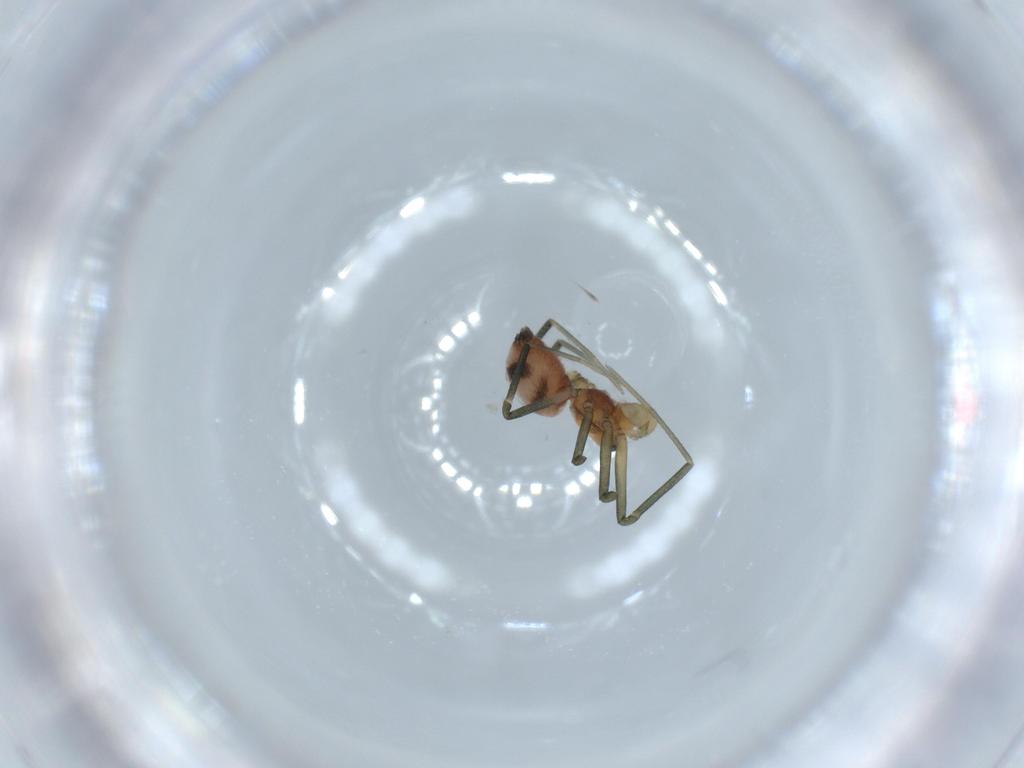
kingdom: Animalia
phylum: Arthropoda
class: Arachnida
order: Araneae
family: Linyphiidae
